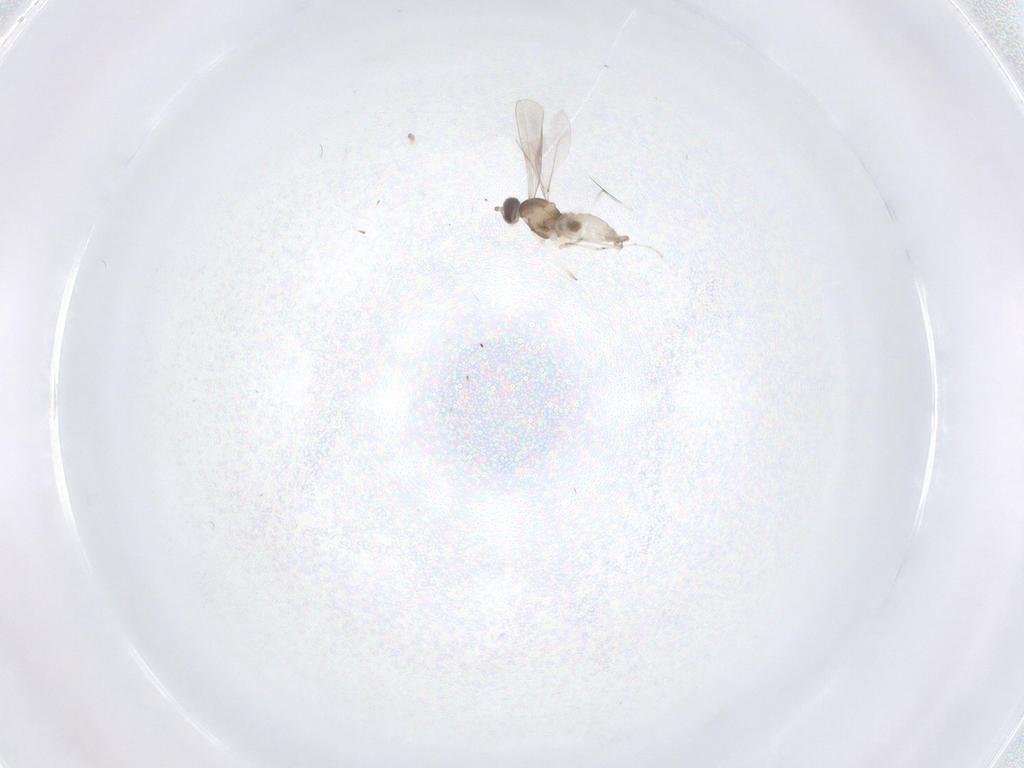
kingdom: Animalia
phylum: Arthropoda
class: Insecta
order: Diptera
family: Cecidomyiidae
